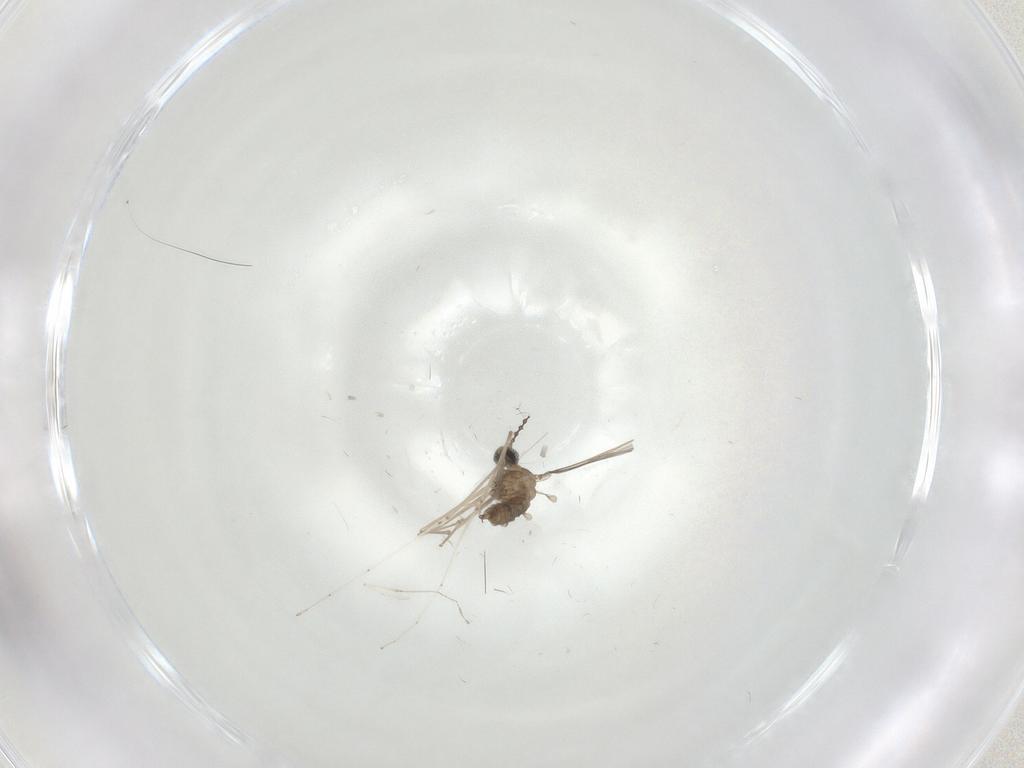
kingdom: Animalia
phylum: Arthropoda
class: Insecta
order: Diptera
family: Cecidomyiidae
